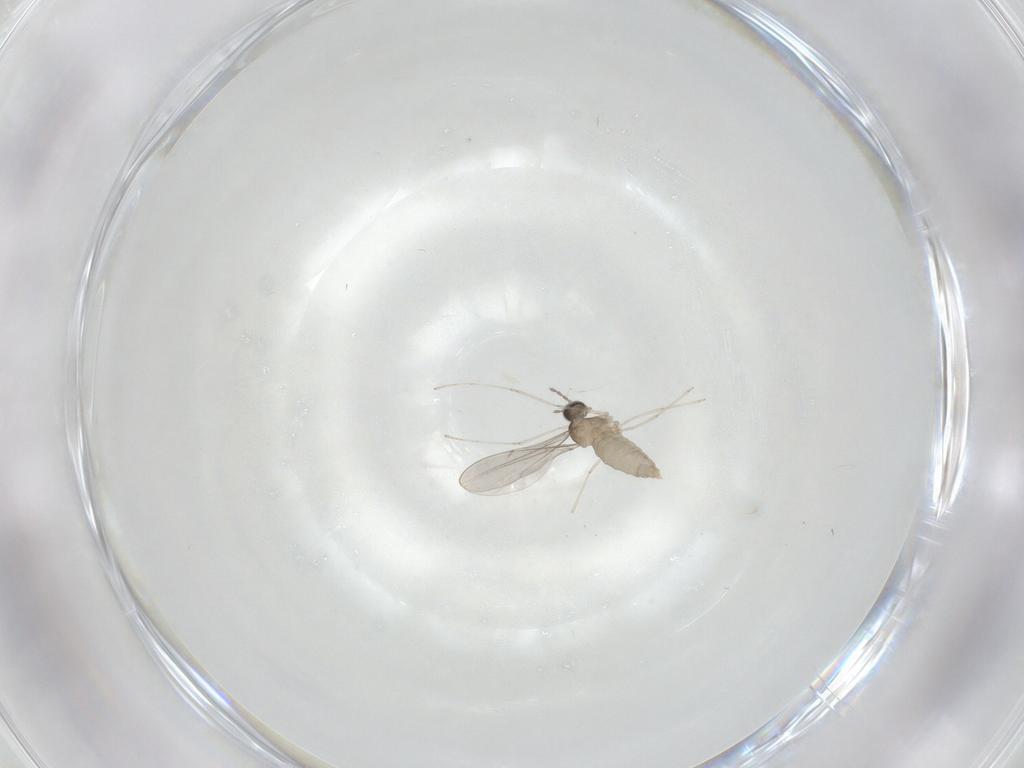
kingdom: Animalia
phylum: Arthropoda
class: Insecta
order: Diptera
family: Cecidomyiidae
